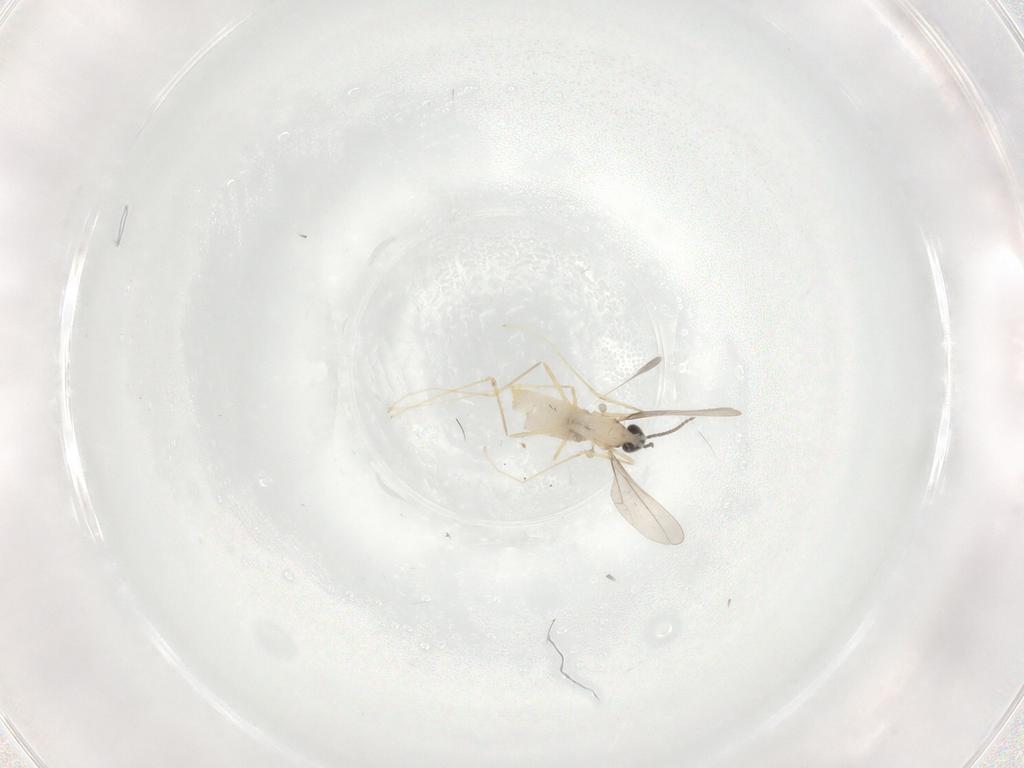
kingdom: Animalia
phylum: Arthropoda
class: Insecta
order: Diptera
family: Cecidomyiidae
